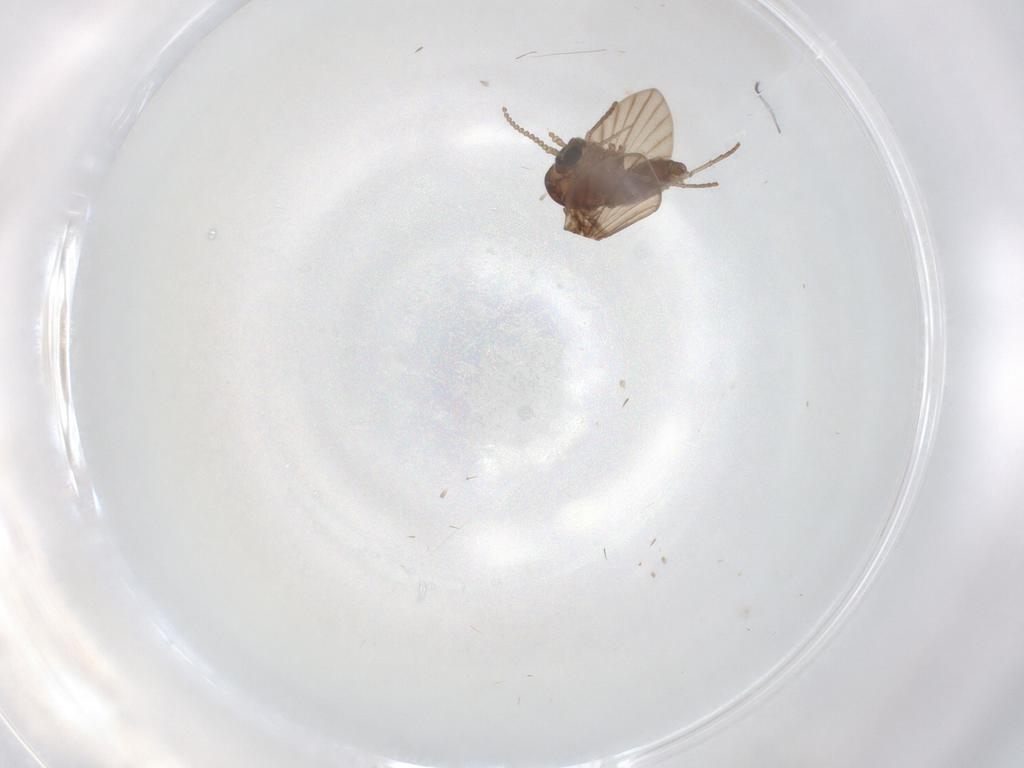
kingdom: Animalia
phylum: Arthropoda
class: Insecta
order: Diptera
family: Psychodidae
